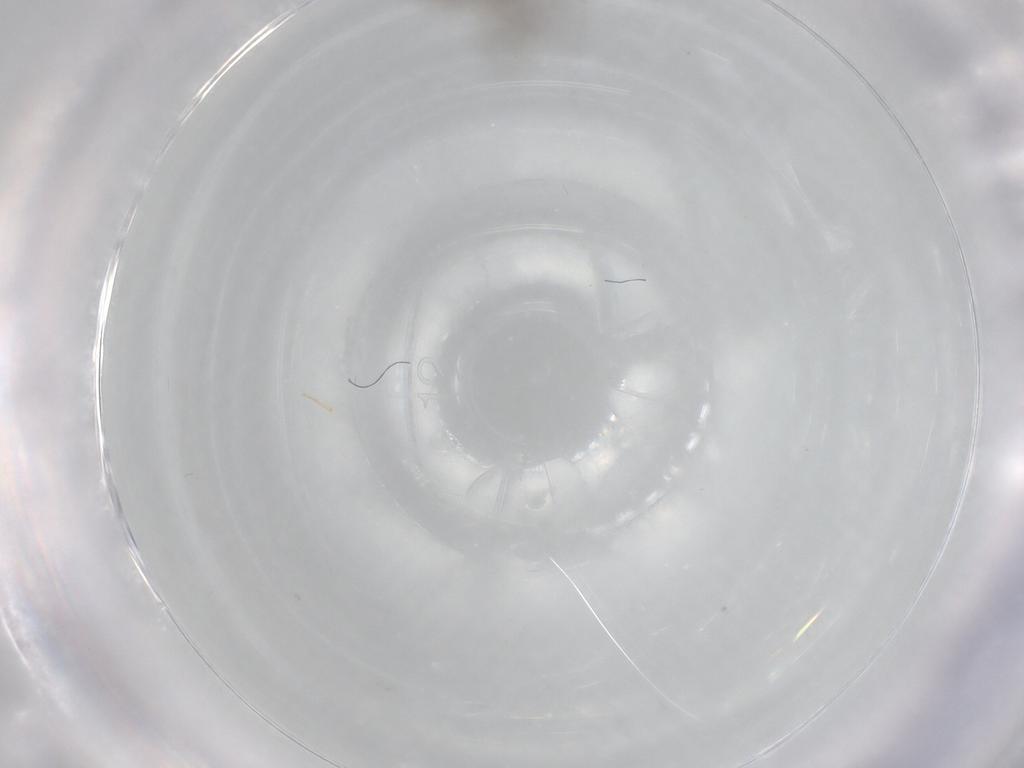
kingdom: Animalia
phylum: Arthropoda
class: Insecta
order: Diptera
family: Chironomidae
